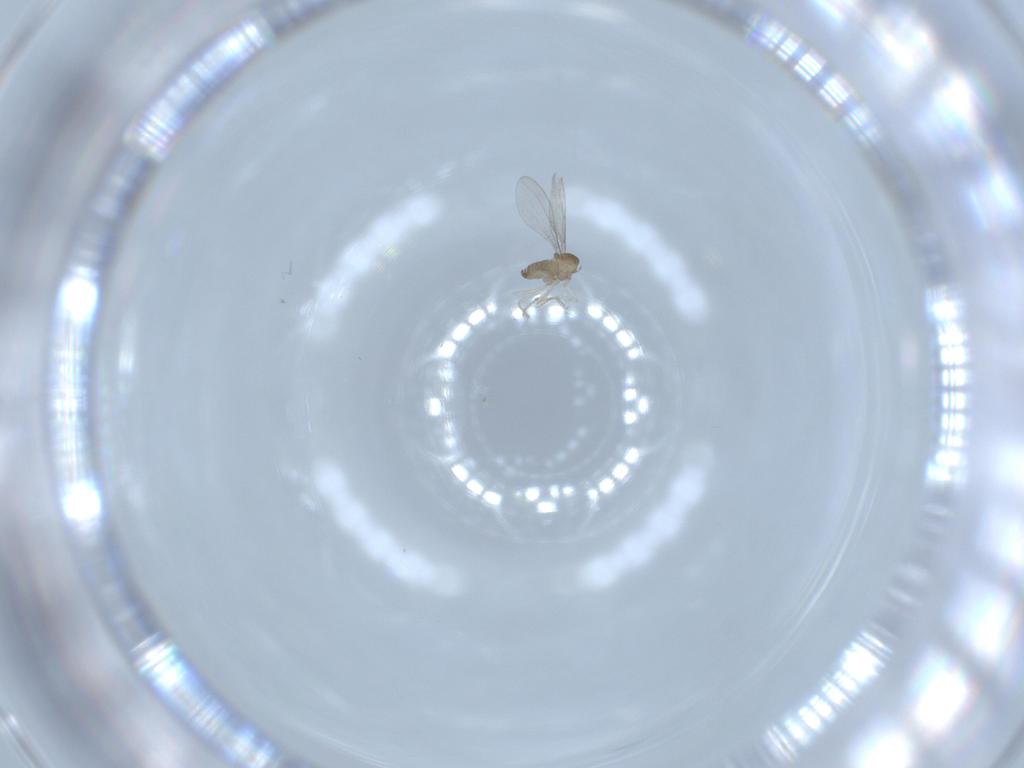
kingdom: Animalia
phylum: Arthropoda
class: Insecta
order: Diptera
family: Cecidomyiidae
